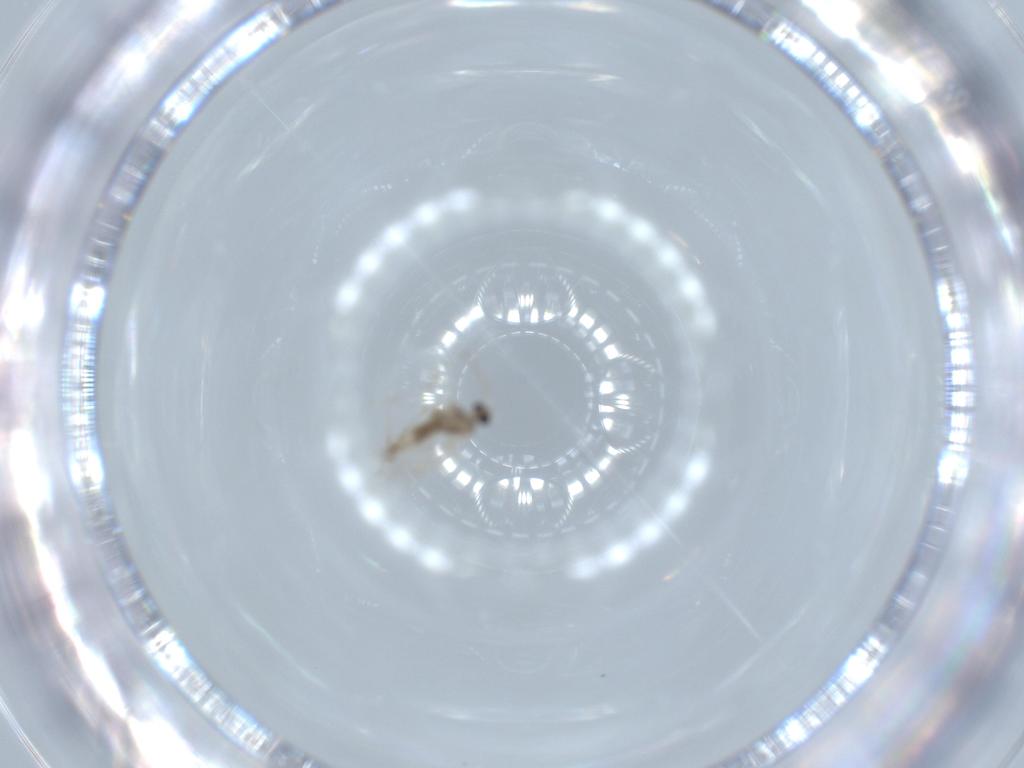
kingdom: Animalia
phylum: Arthropoda
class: Insecta
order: Diptera
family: Cecidomyiidae
